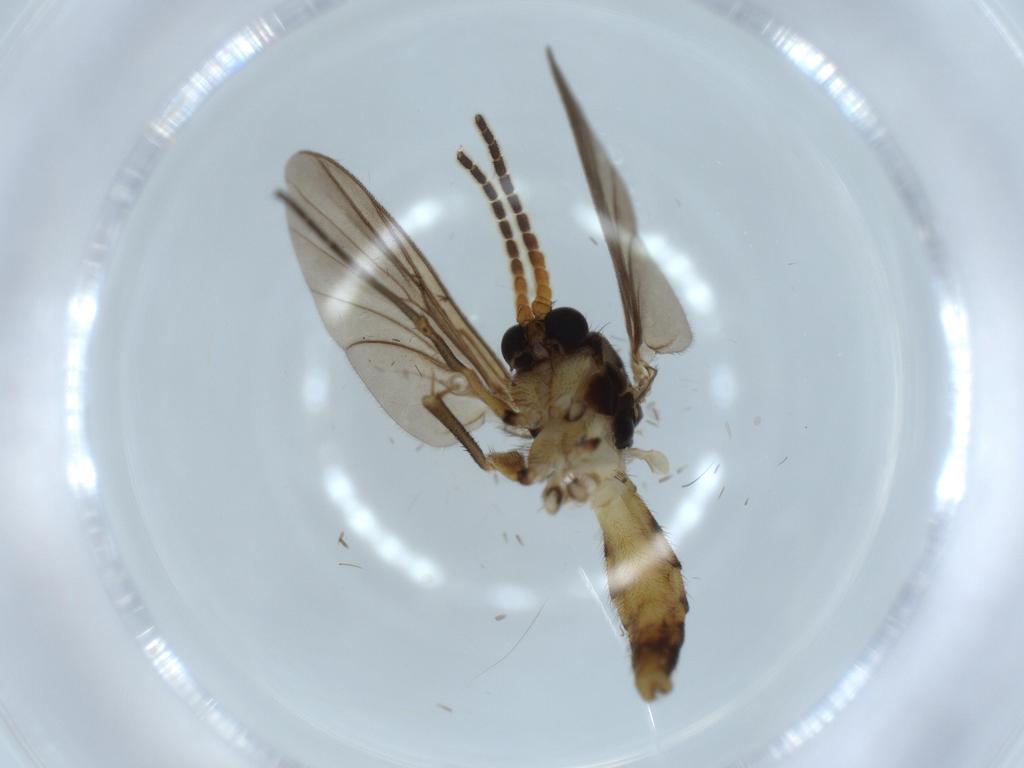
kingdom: Animalia
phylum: Arthropoda
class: Insecta
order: Diptera
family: Sciaridae
